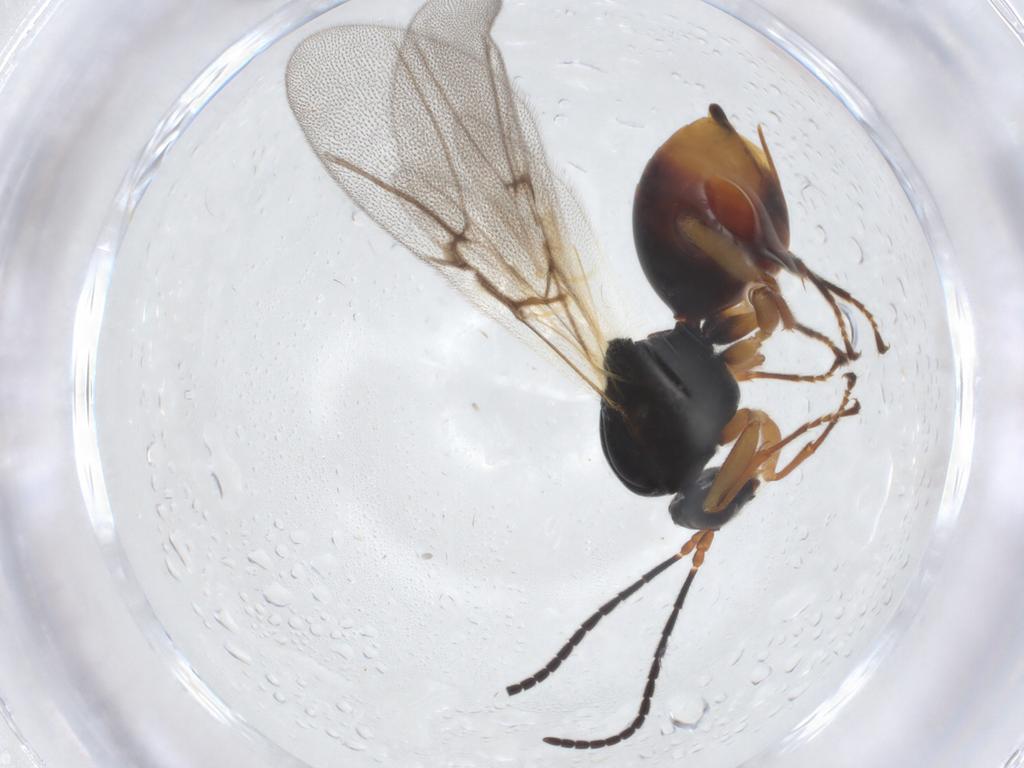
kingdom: Animalia
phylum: Arthropoda
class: Insecta
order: Hymenoptera
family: Cynipidae
